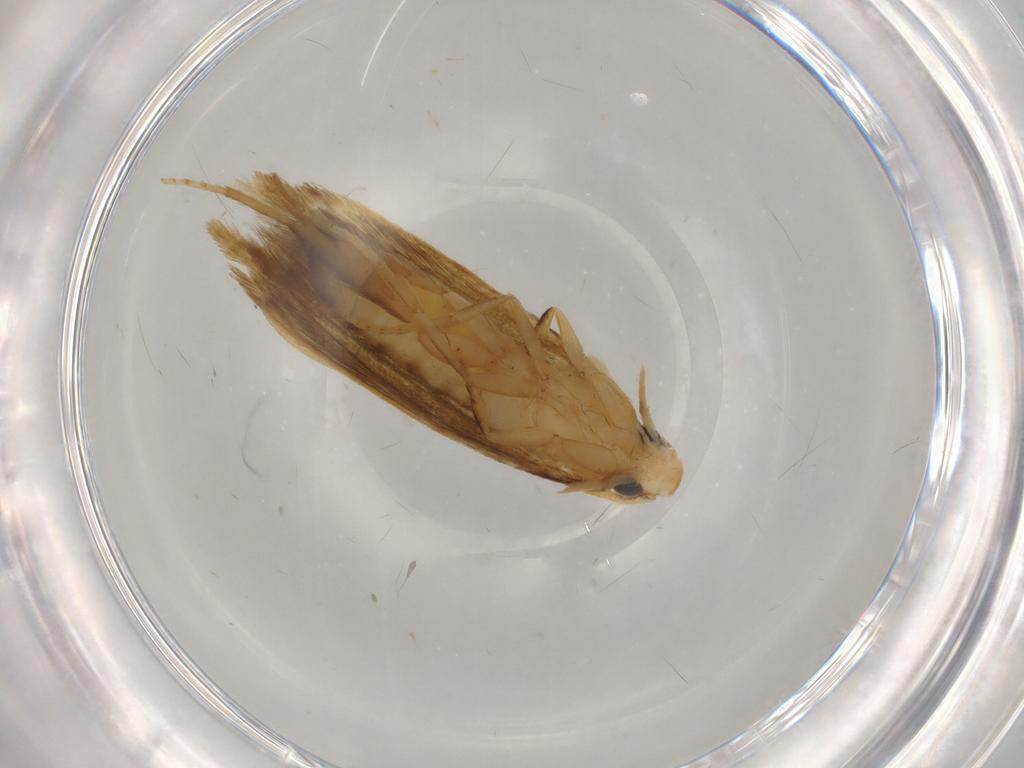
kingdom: Animalia
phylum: Arthropoda
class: Insecta
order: Lepidoptera
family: Tineidae
